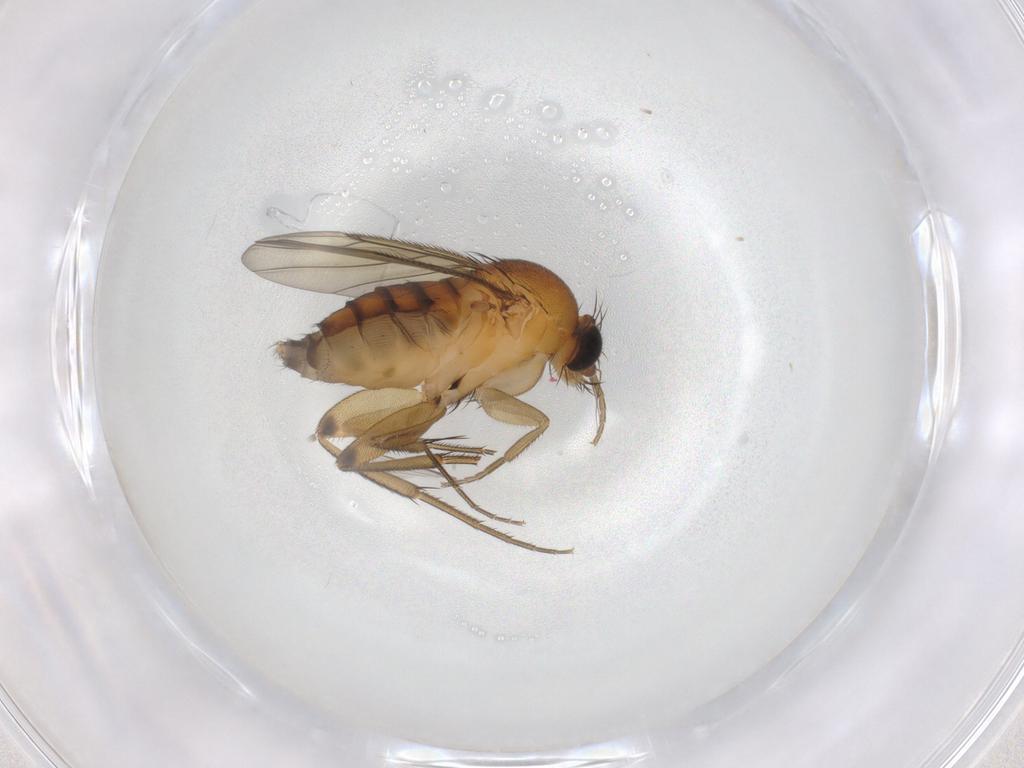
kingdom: Animalia
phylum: Arthropoda
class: Insecta
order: Diptera
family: Phoridae
